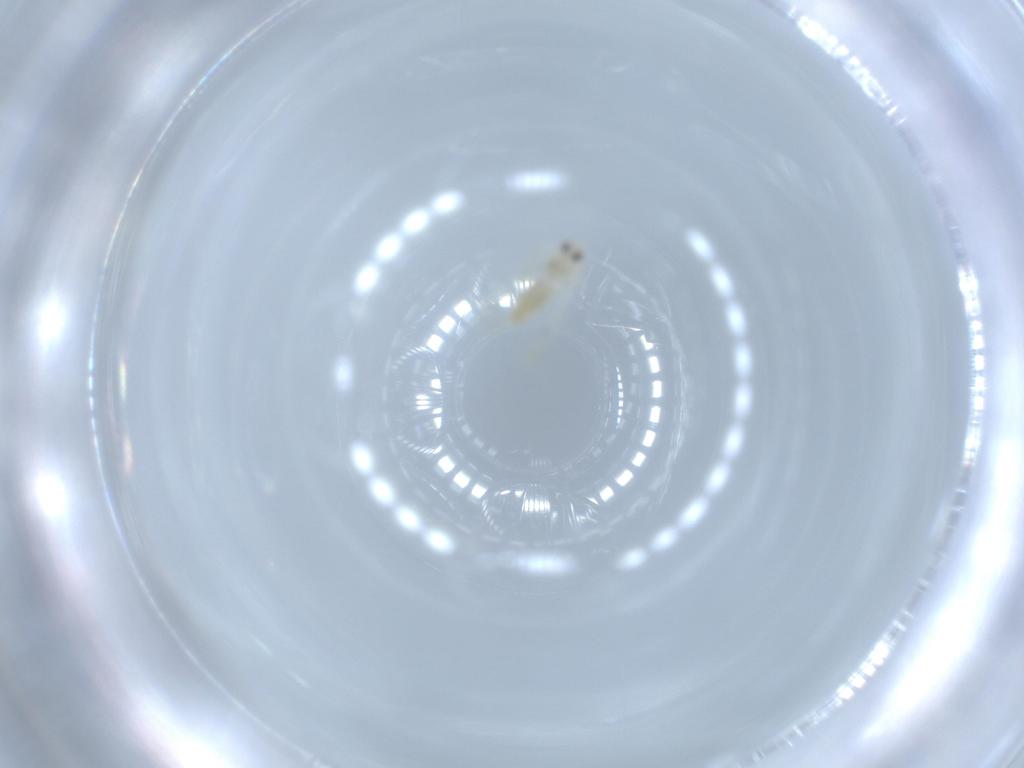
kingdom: Animalia
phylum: Arthropoda
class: Insecta
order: Hemiptera
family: Aleyrodidae
